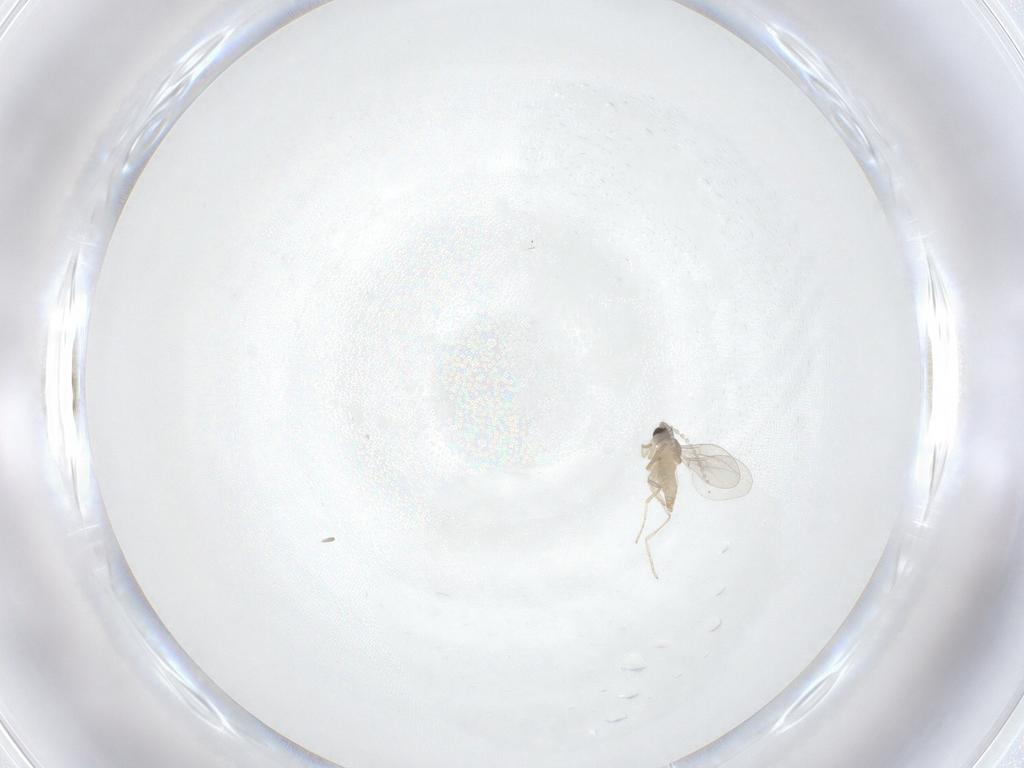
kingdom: Animalia
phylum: Arthropoda
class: Insecta
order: Diptera
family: Cecidomyiidae
